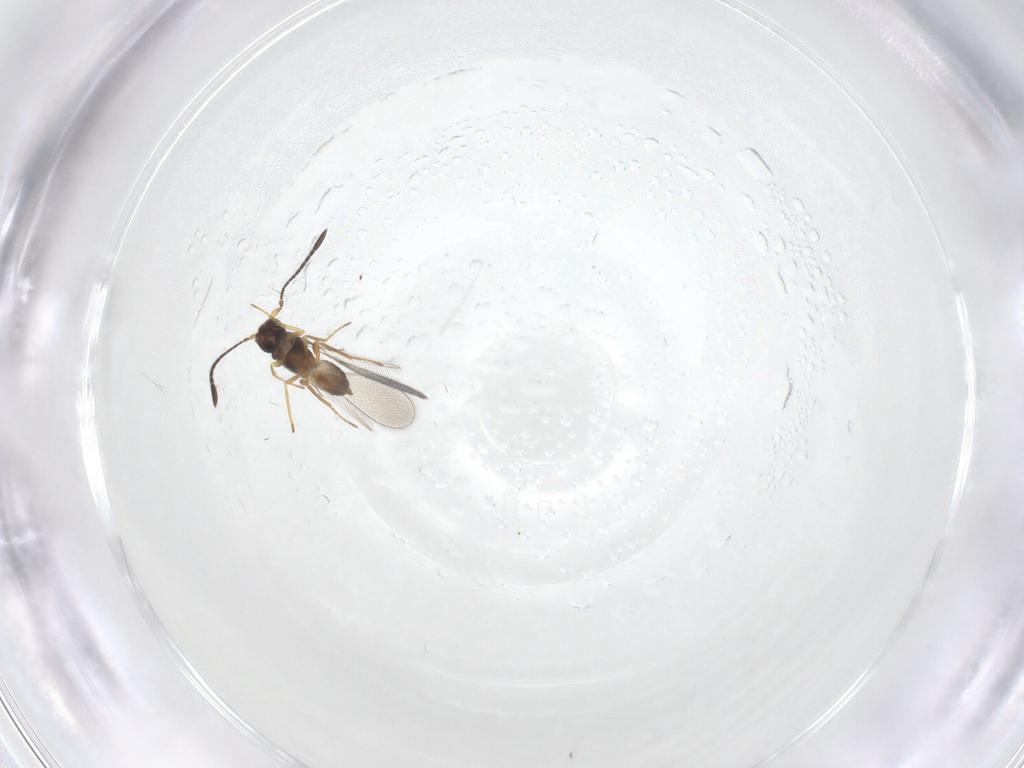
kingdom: Animalia
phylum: Arthropoda
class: Insecta
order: Hymenoptera
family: Mymaridae
